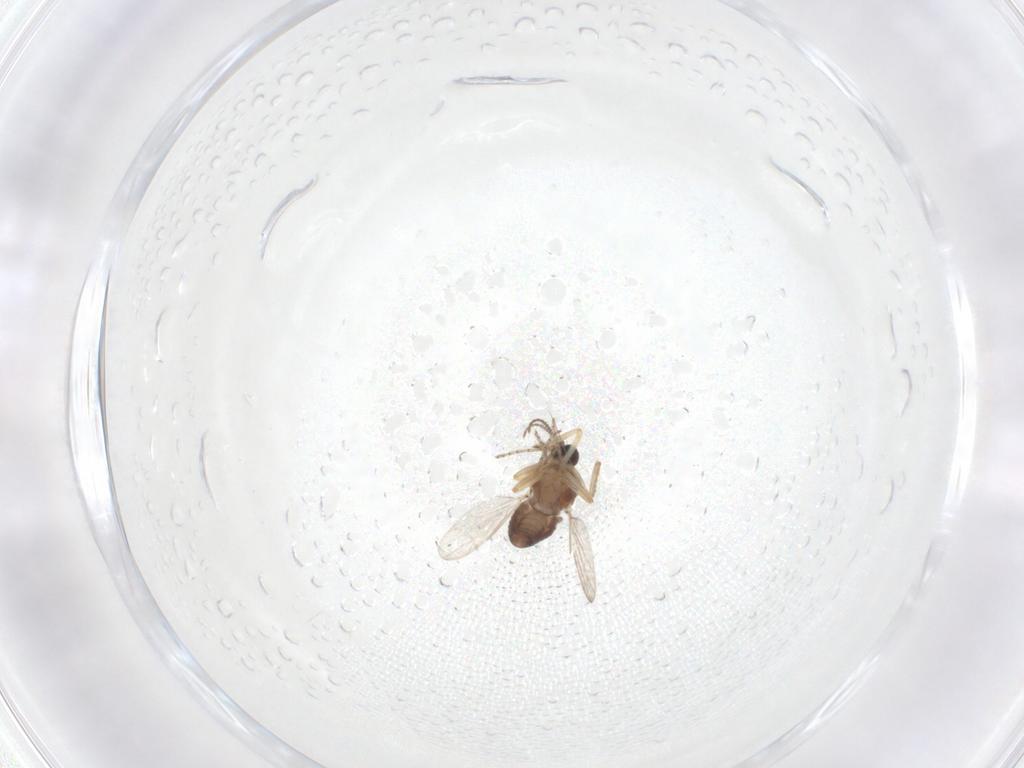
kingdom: Animalia
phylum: Arthropoda
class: Insecta
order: Diptera
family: Ceratopogonidae
